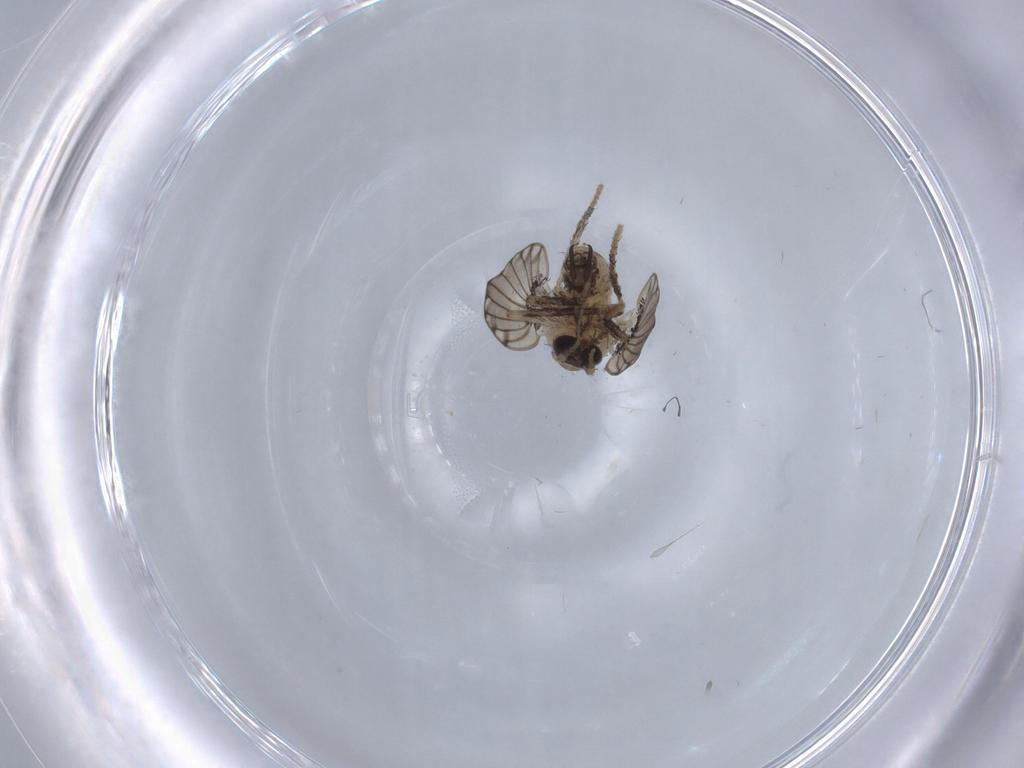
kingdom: Animalia
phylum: Arthropoda
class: Insecta
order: Diptera
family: Psychodidae
